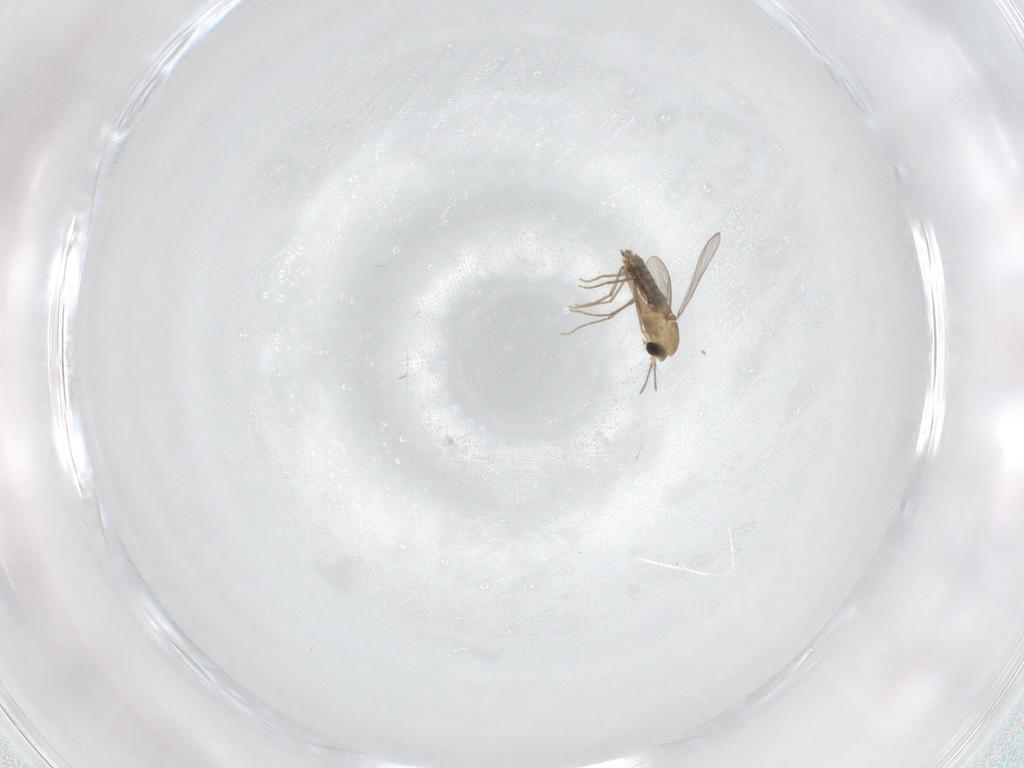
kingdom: Animalia
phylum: Arthropoda
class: Insecta
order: Diptera
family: Chironomidae
